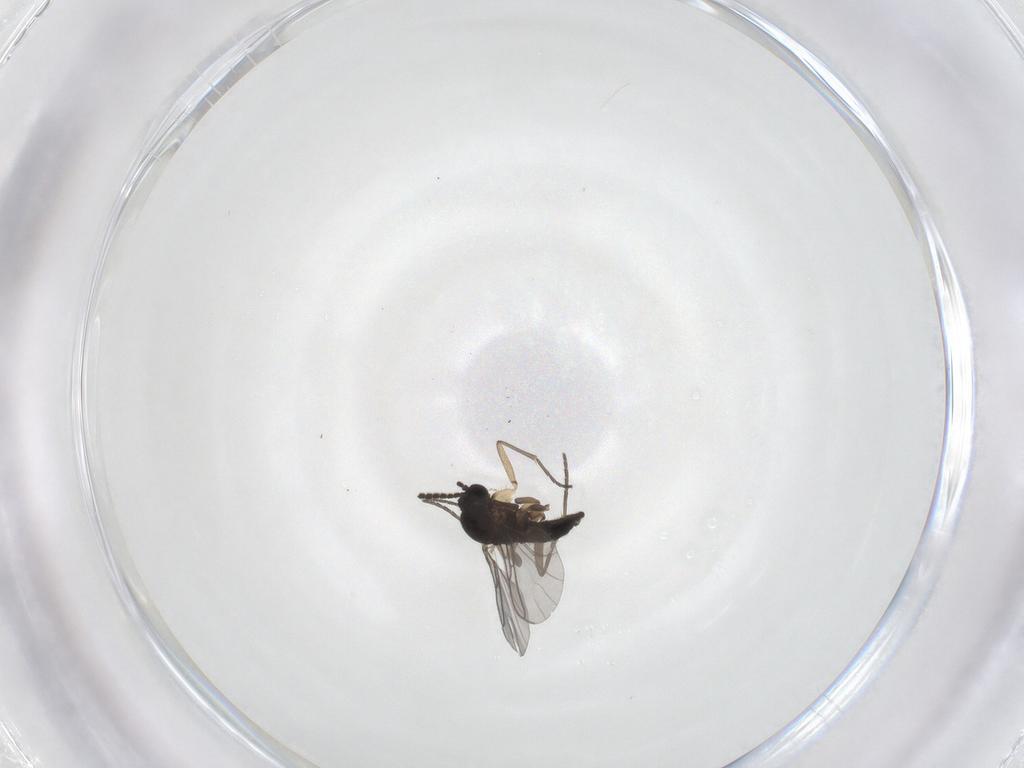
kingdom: Animalia
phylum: Arthropoda
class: Insecta
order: Diptera
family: Sciaridae
